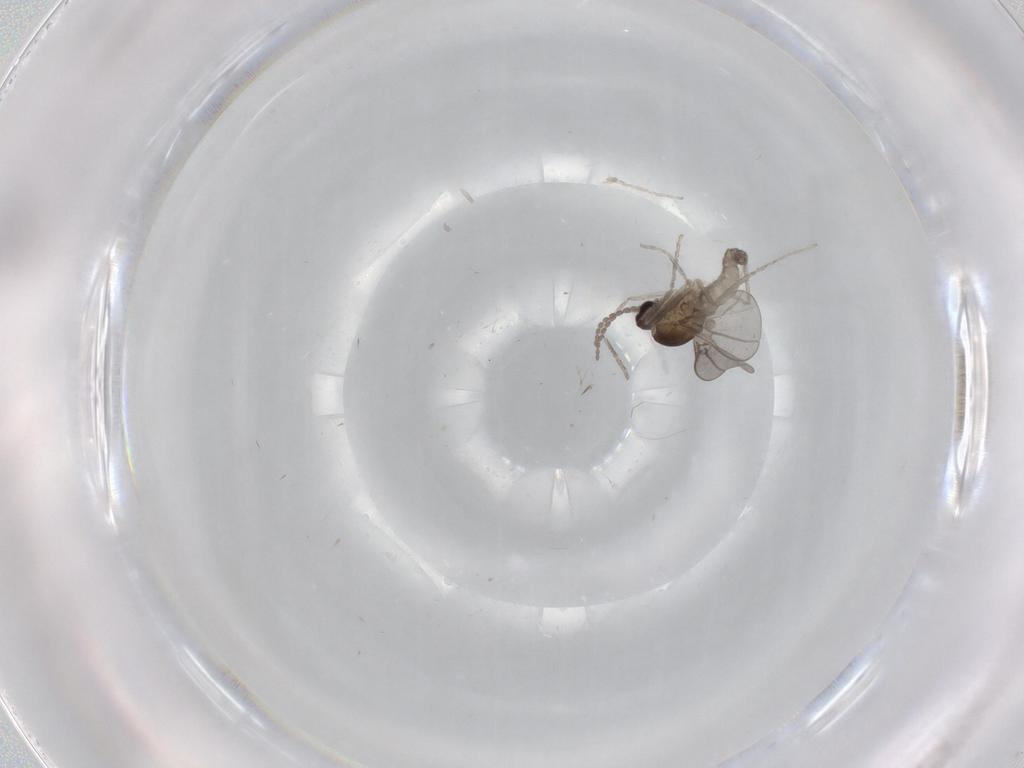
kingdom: Animalia
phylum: Arthropoda
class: Insecta
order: Diptera
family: Cecidomyiidae
